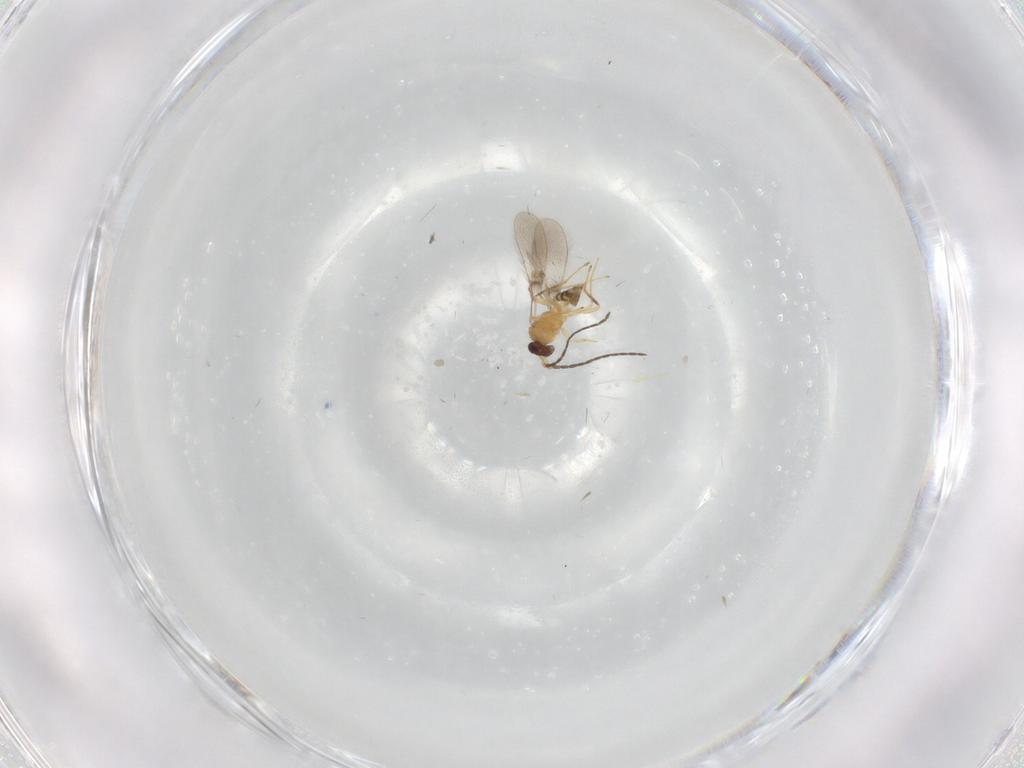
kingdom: Animalia
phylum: Arthropoda
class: Insecta
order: Hymenoptera
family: Mymaridae
